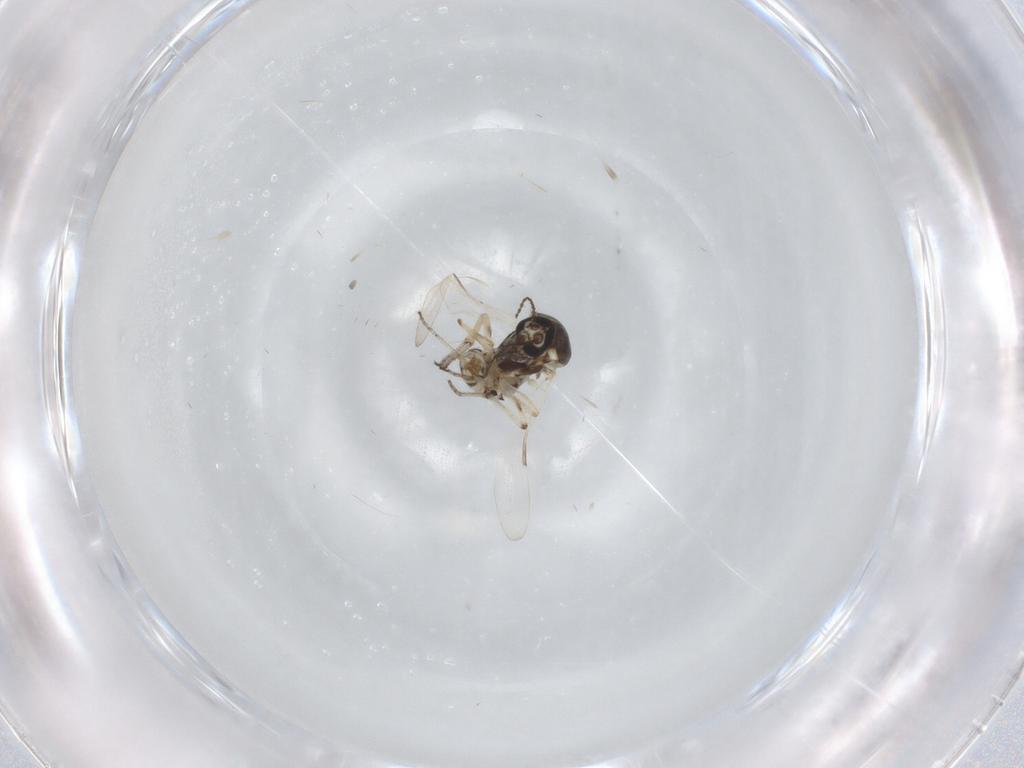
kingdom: Animalia
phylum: Arthropoda
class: Insecta
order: Diptera
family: Ceratopogonidae
